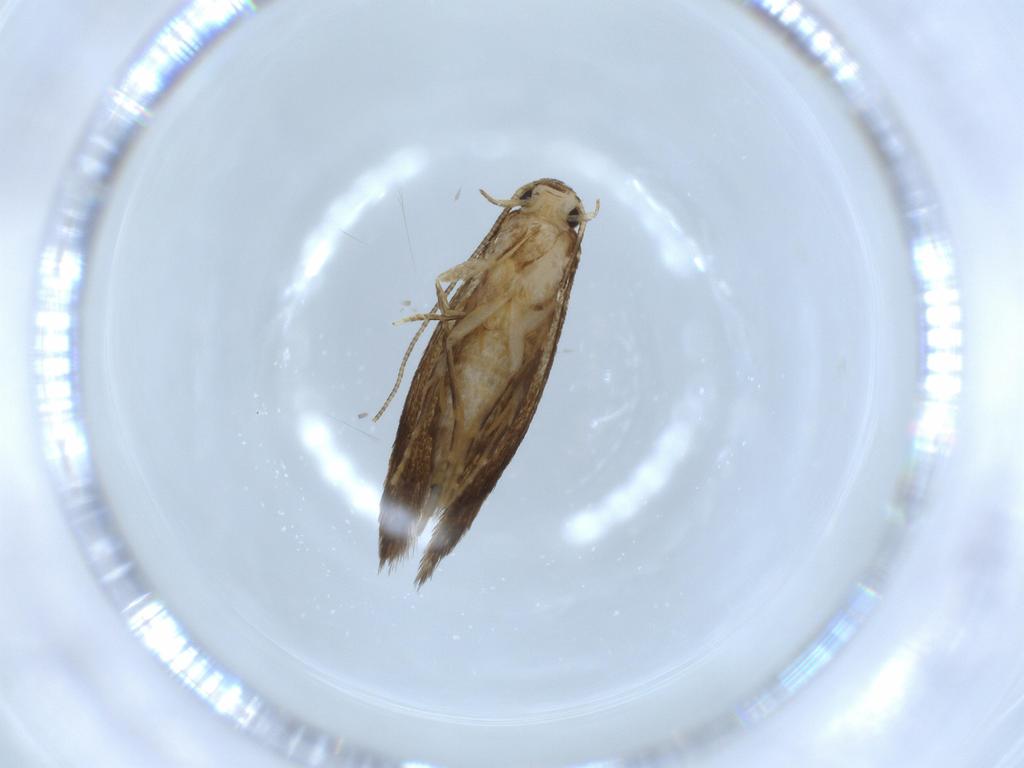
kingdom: Animalia
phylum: Arthropoda
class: Insecta
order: Lepidoptera
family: Tineidae
